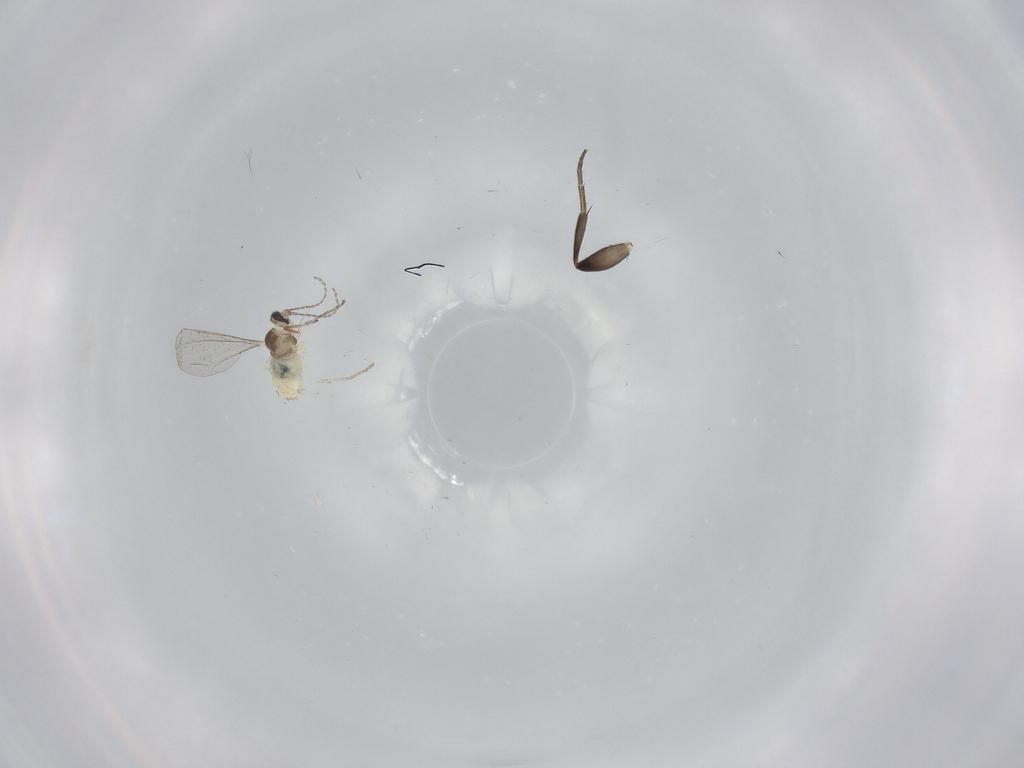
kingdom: Animalia
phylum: Arthropoda
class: Insecta
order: Diptera
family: Cecidomyiidae
